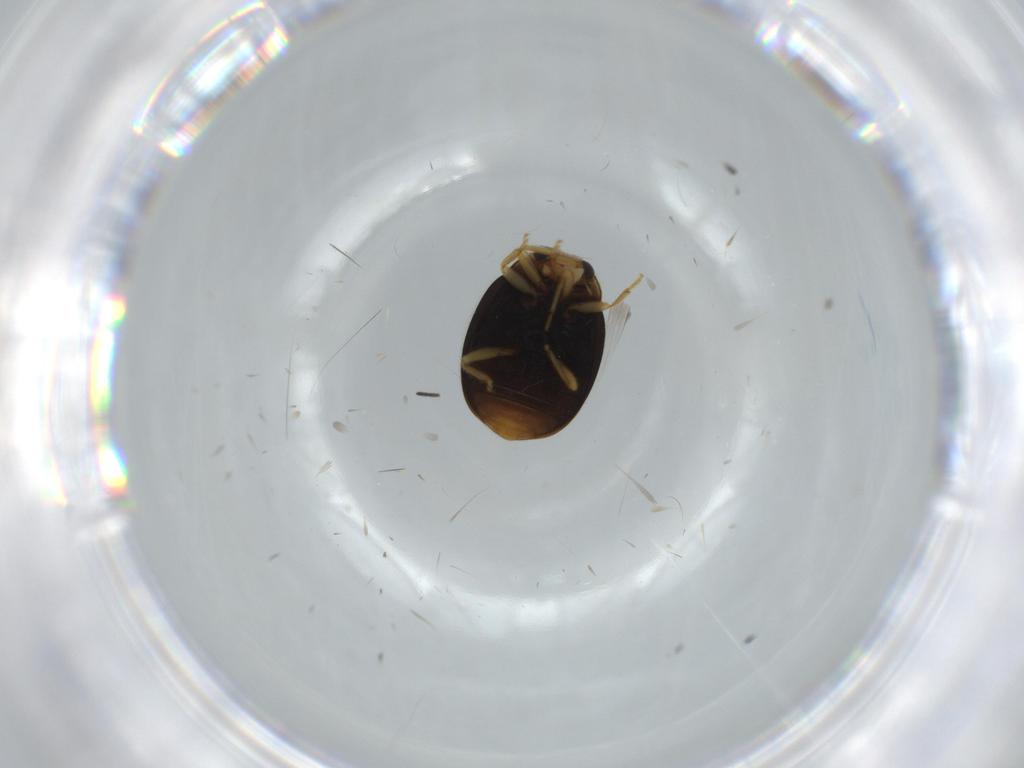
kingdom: Animalia
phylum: Arthropoda
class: Insecta
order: Coleoptera
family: Coccinellidae
